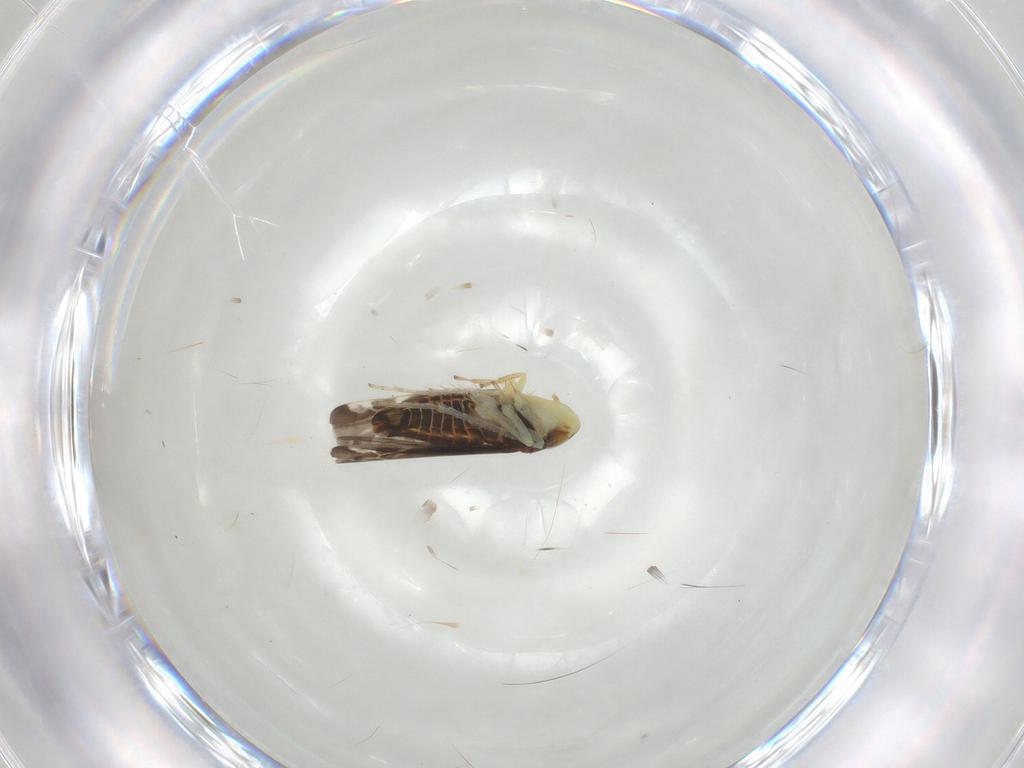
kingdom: Animalia
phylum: Arthropoda
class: Insecta
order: Hemiptera
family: Cicadellidae
